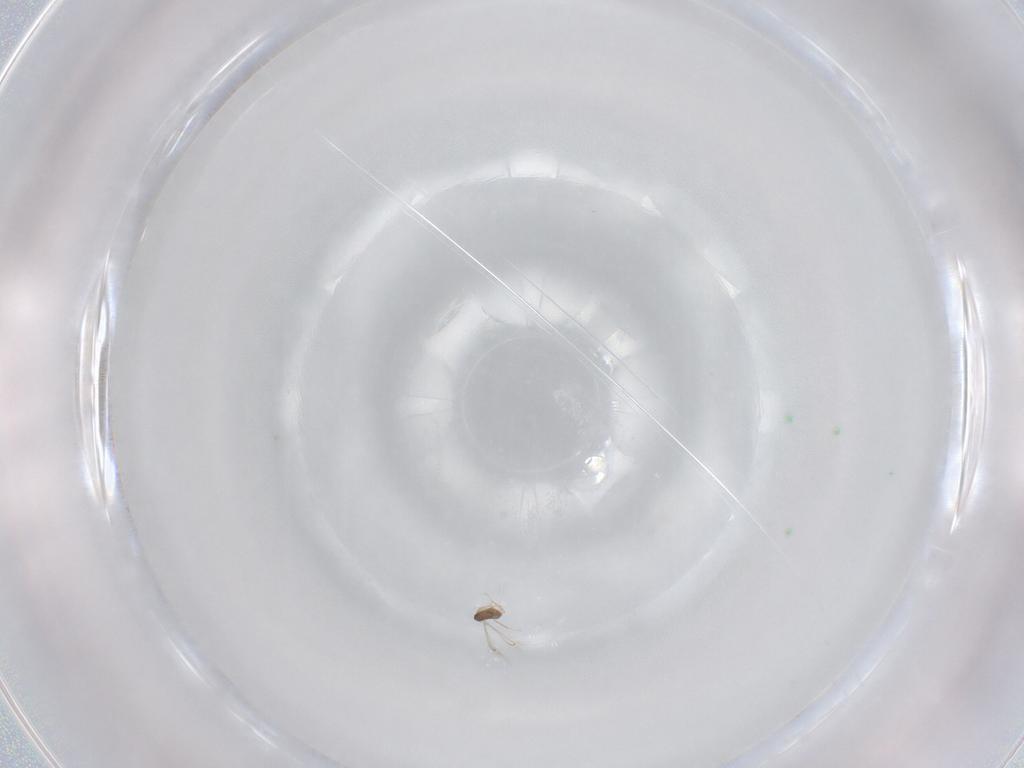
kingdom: Animalia
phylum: Arthropoda
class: Insecta
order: Hymenoptera
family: Mymaridae
